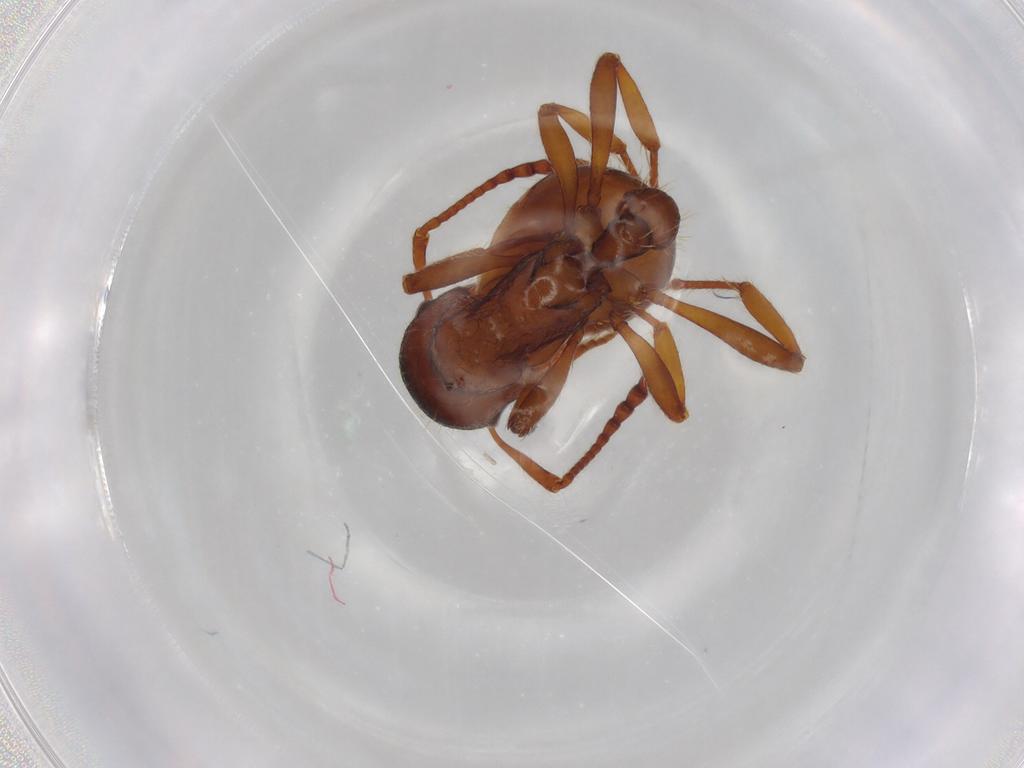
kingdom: Animalia
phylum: Arthropoda
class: Insecta
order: Hymenoptera
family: Formicidae
